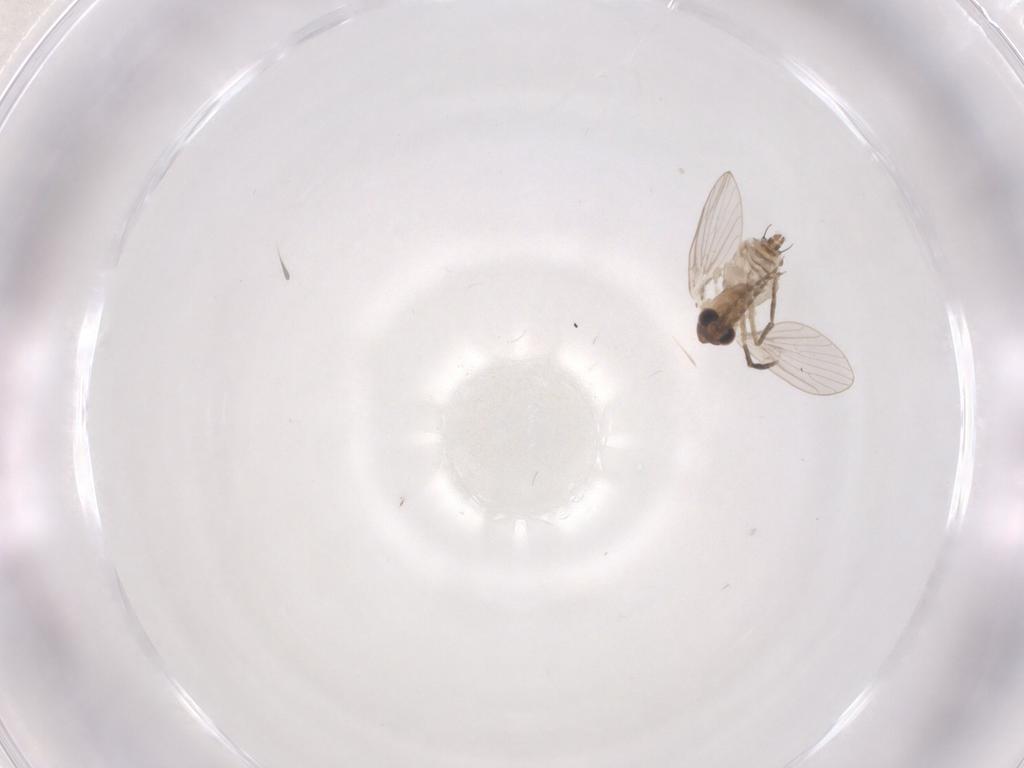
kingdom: Animalia
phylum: Arthropoda
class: Insecta
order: Diptera
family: Psychodidae
